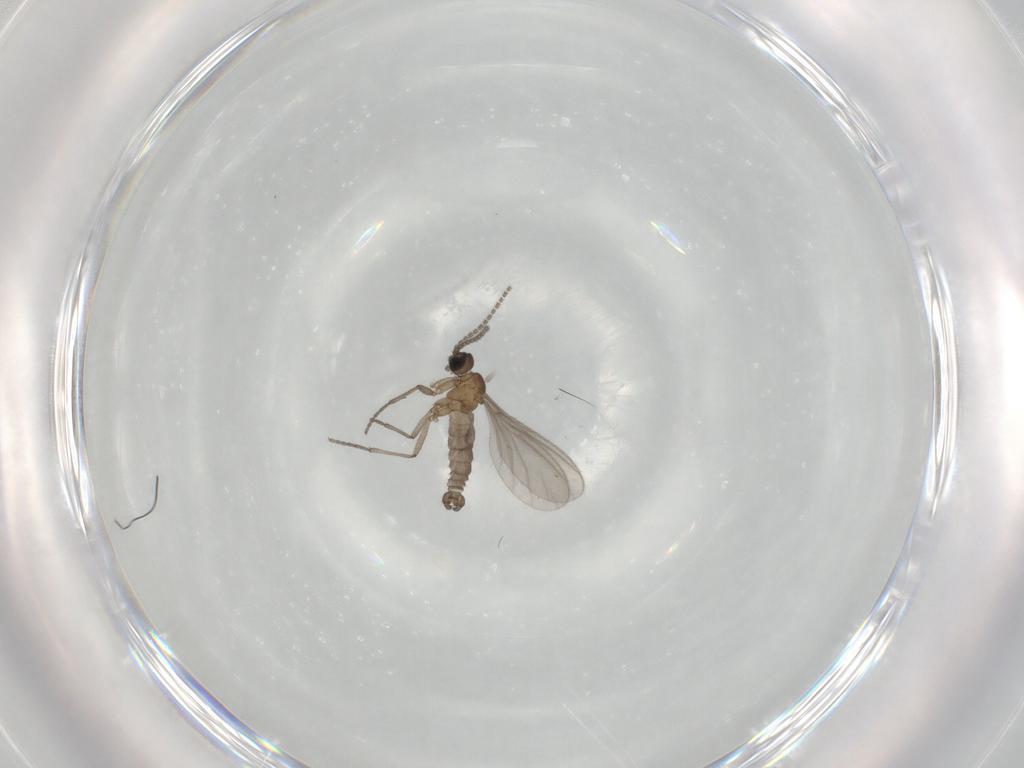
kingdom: Animalia
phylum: Arthropoda
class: Insecta
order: Diptera
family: Sciaridae
